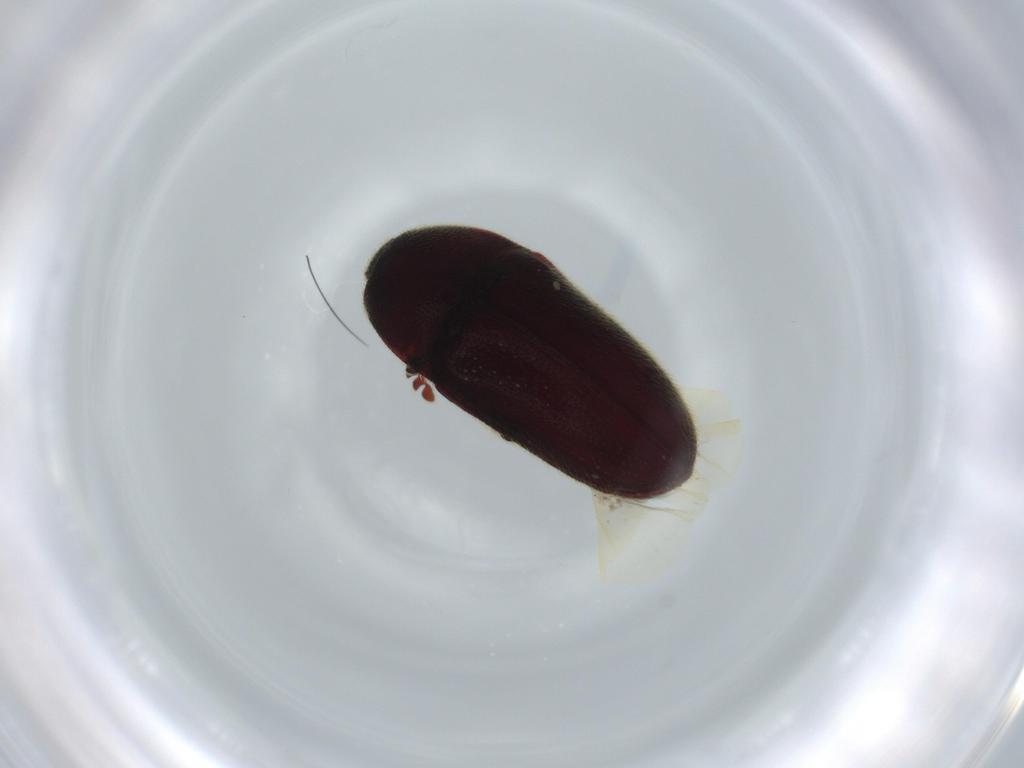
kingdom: Animalia
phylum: Arthropoda
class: Insecta
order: Coleoptera
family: Throscidae
